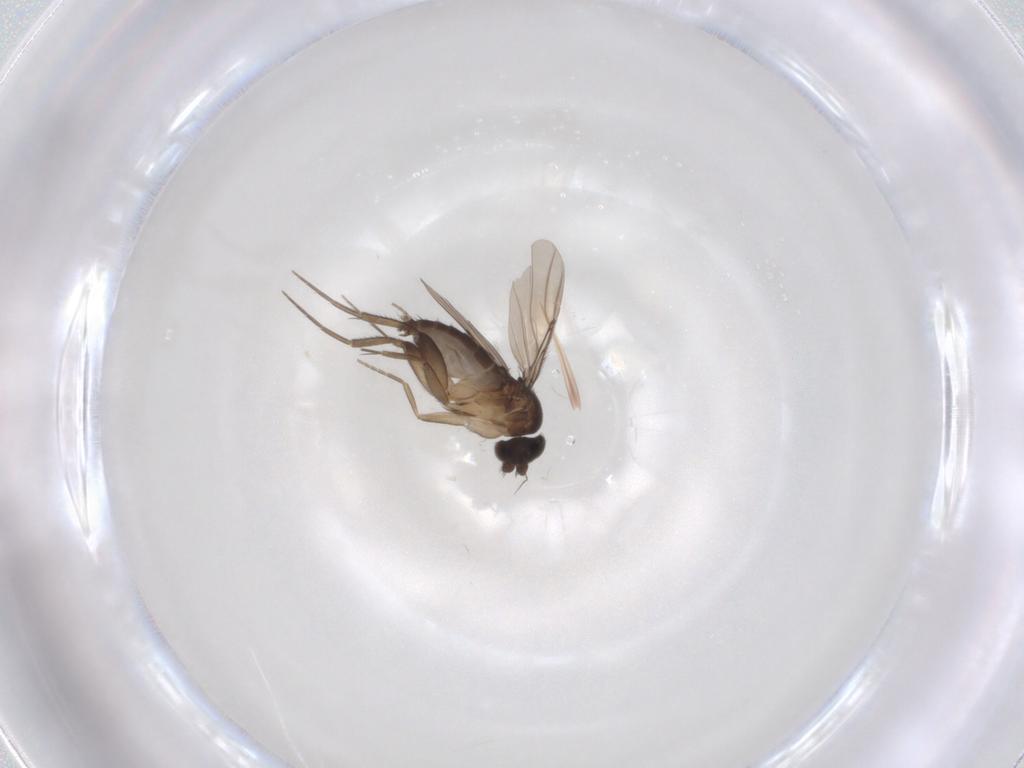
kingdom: Animalia
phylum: Arthropoda
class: Insecta
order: Diptera
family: Phoridae
